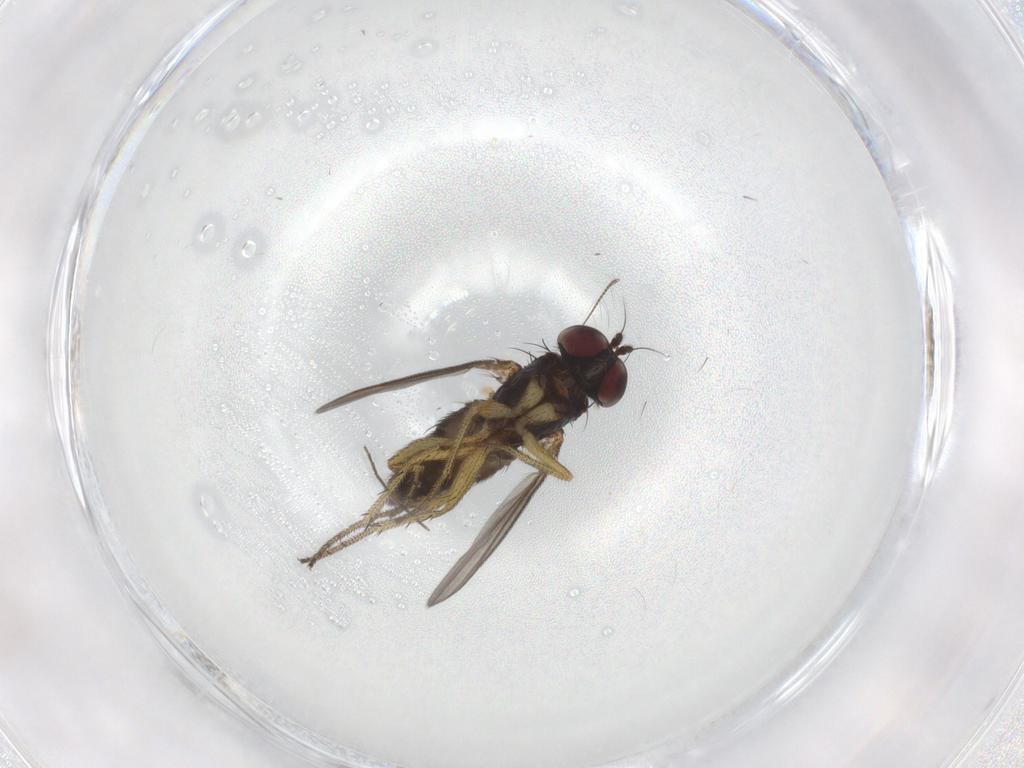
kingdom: Animalia
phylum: Arthropoda
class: Insecta
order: Diptera
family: Dolichopodidae
